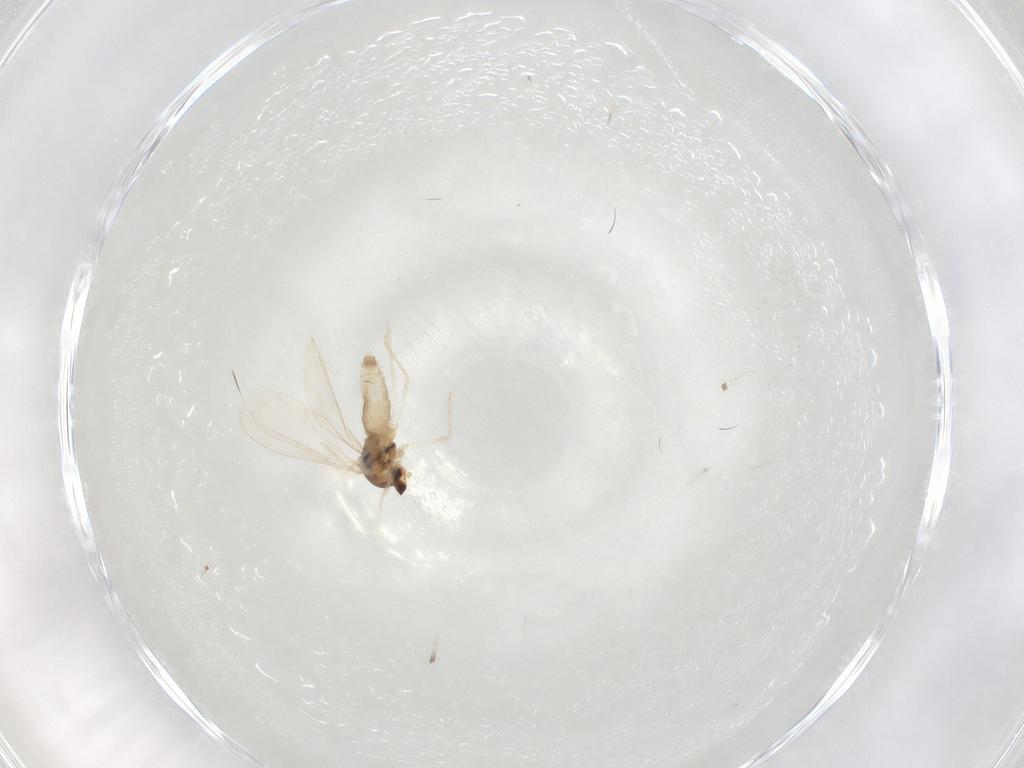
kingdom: Animalia
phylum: Arthropoda
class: Insecta
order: Diptera
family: Cecidomyiidae
